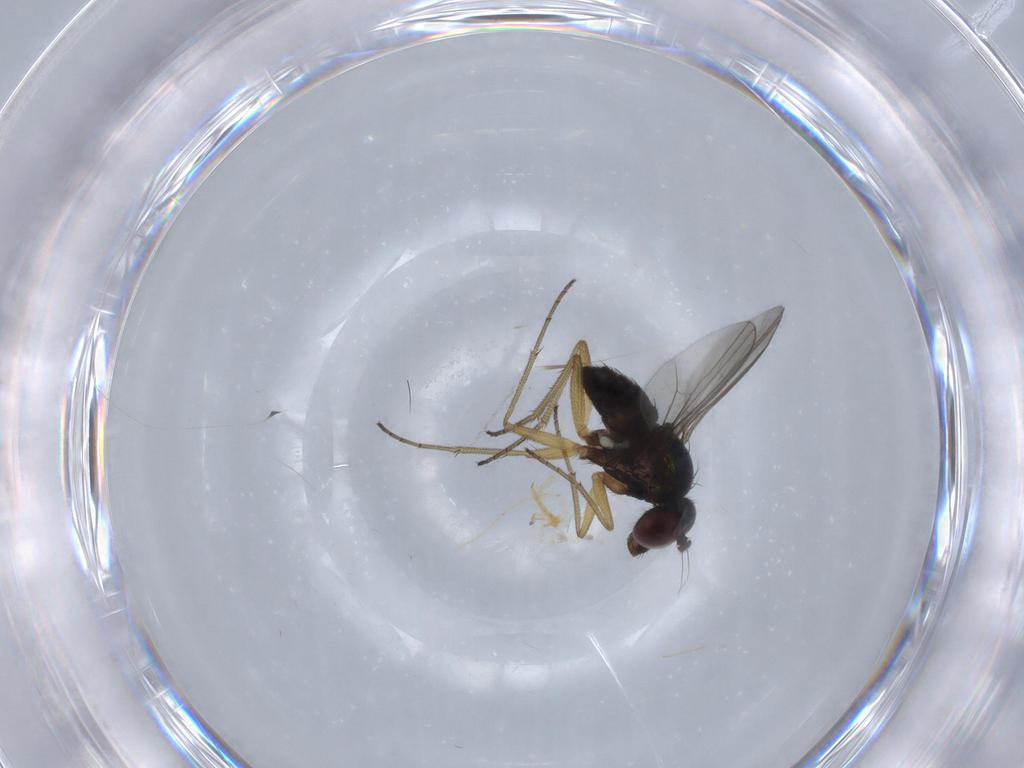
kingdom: Animalia
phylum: Arthropoda
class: Insecta
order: Diptera
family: Dolichopodidae
